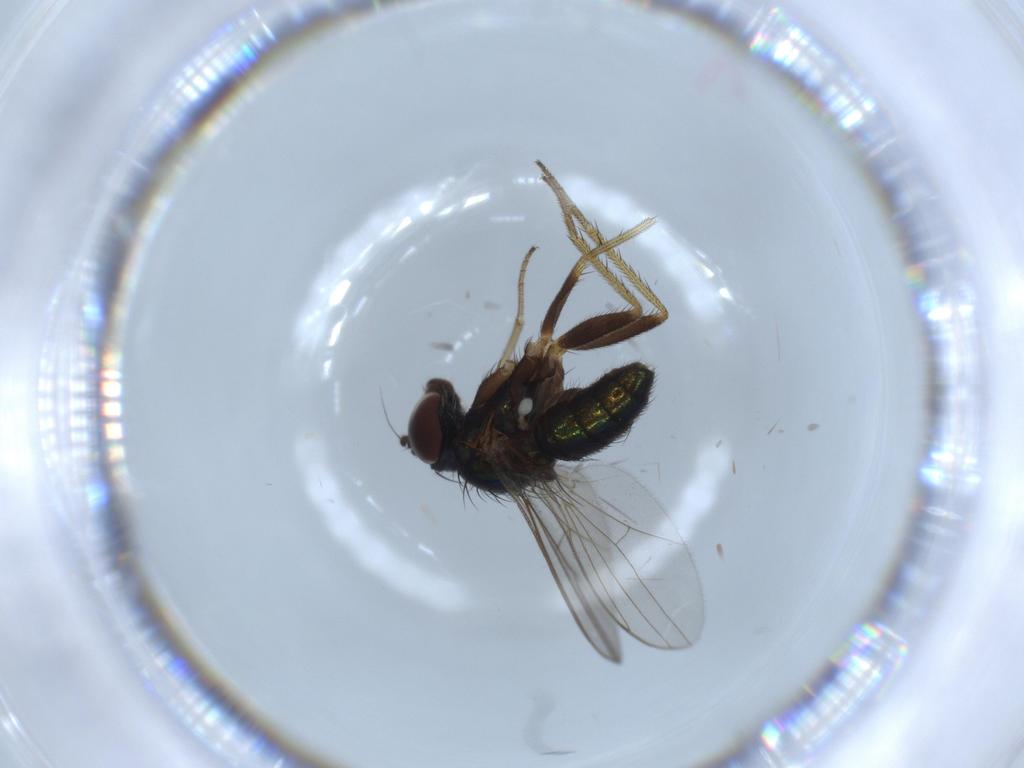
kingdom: Animalia
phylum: Arthropoda
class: Insecta
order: Diptera
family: Dolichopodidae
